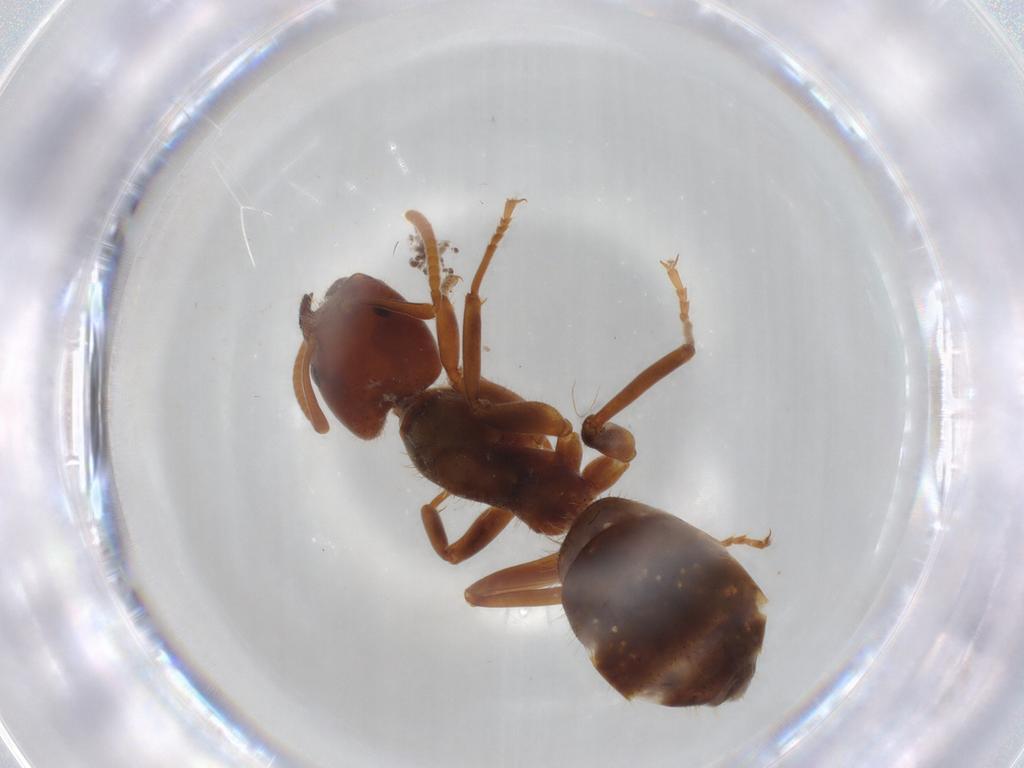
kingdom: Animalia
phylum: Arthropoda
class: Insecta
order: Hymenoptera
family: Formicidae
